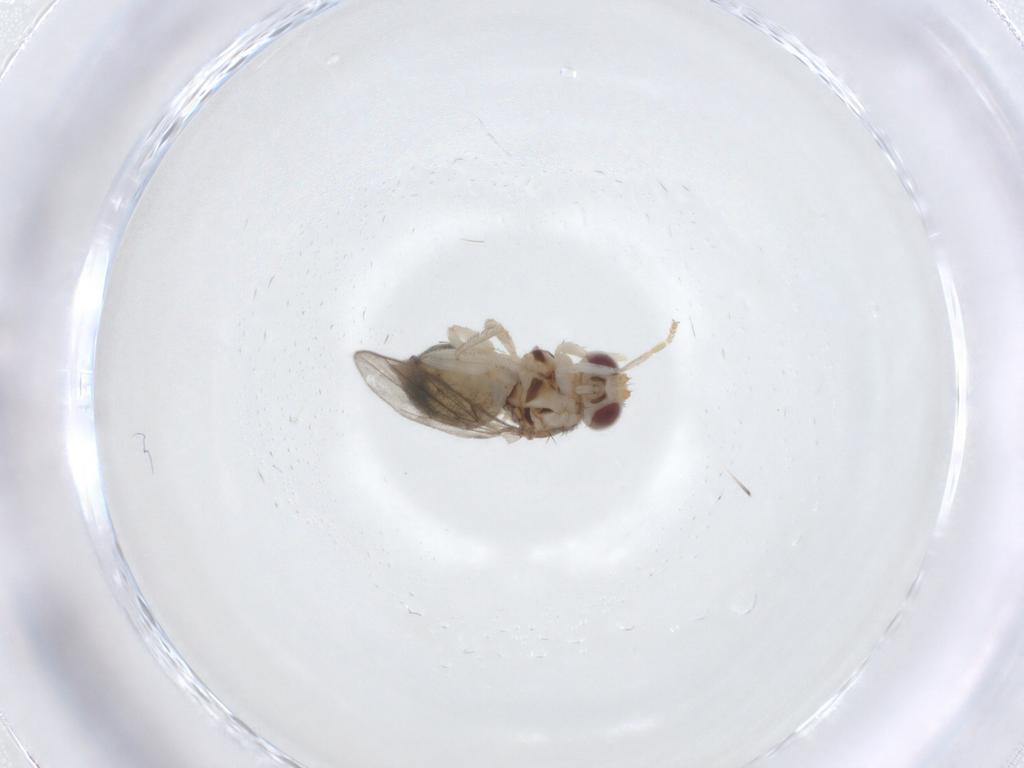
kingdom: Animalia
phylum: Arthropoda
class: Insecta
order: Diptera
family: Chloropidae
